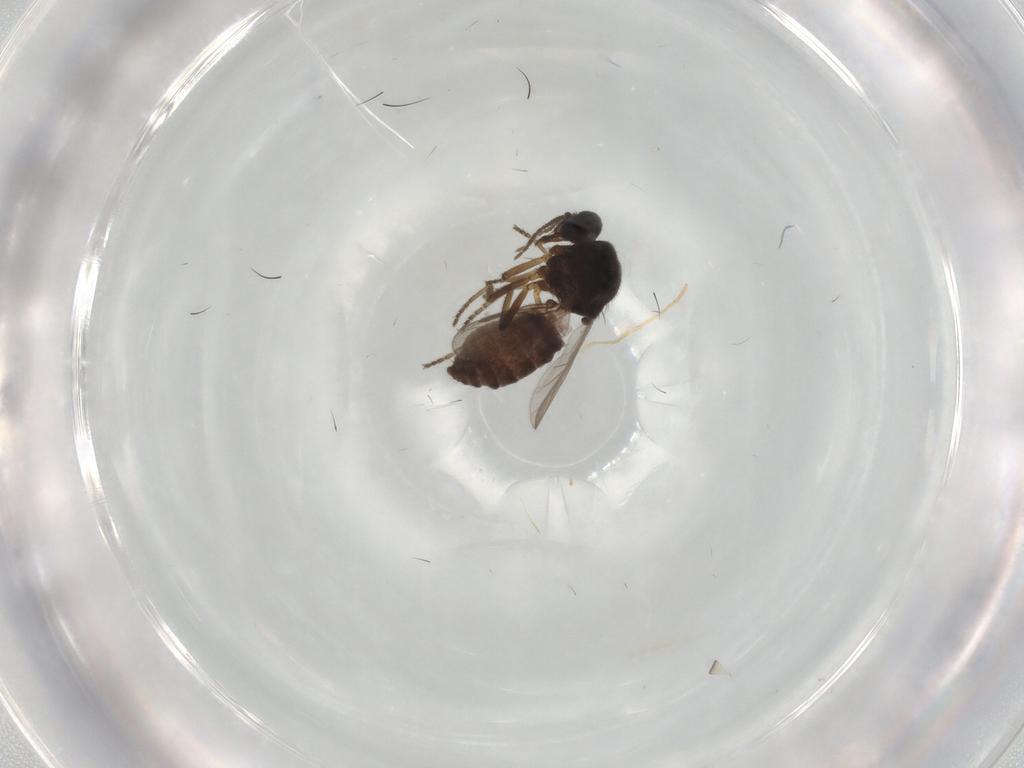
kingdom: Animalia
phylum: Arthropoda
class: Insecta
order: Diptera
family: Ceratopogonidae
